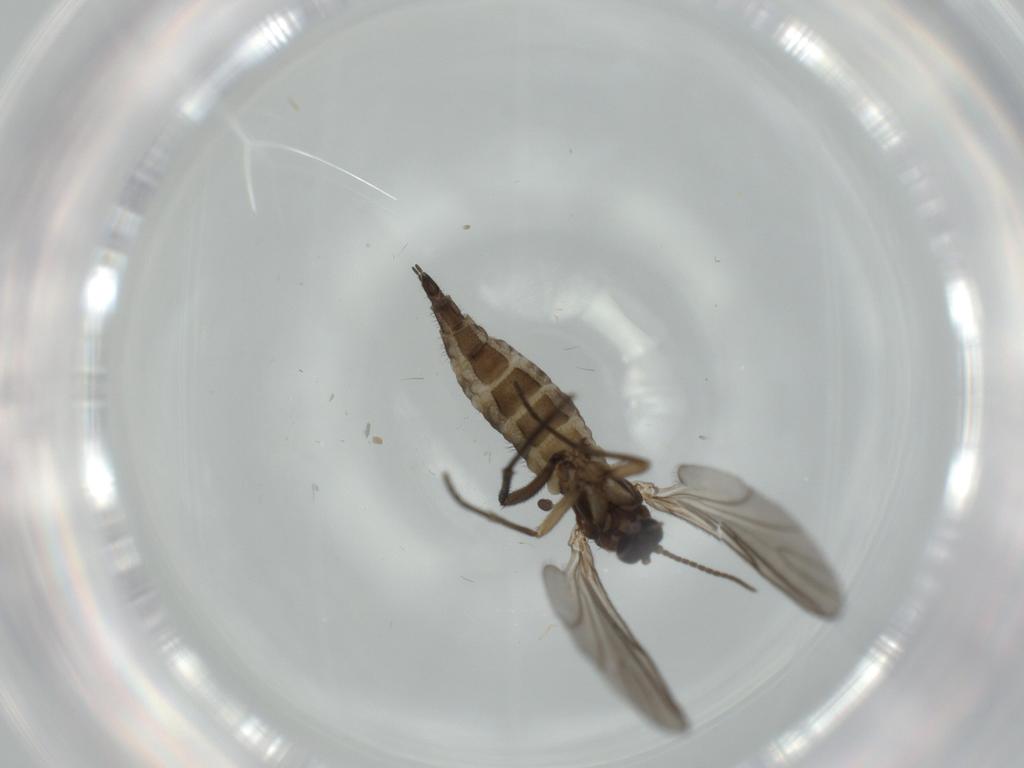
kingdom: Animalia
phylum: Arthropoda
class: Insecta
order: Diptera
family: Sciaridae
